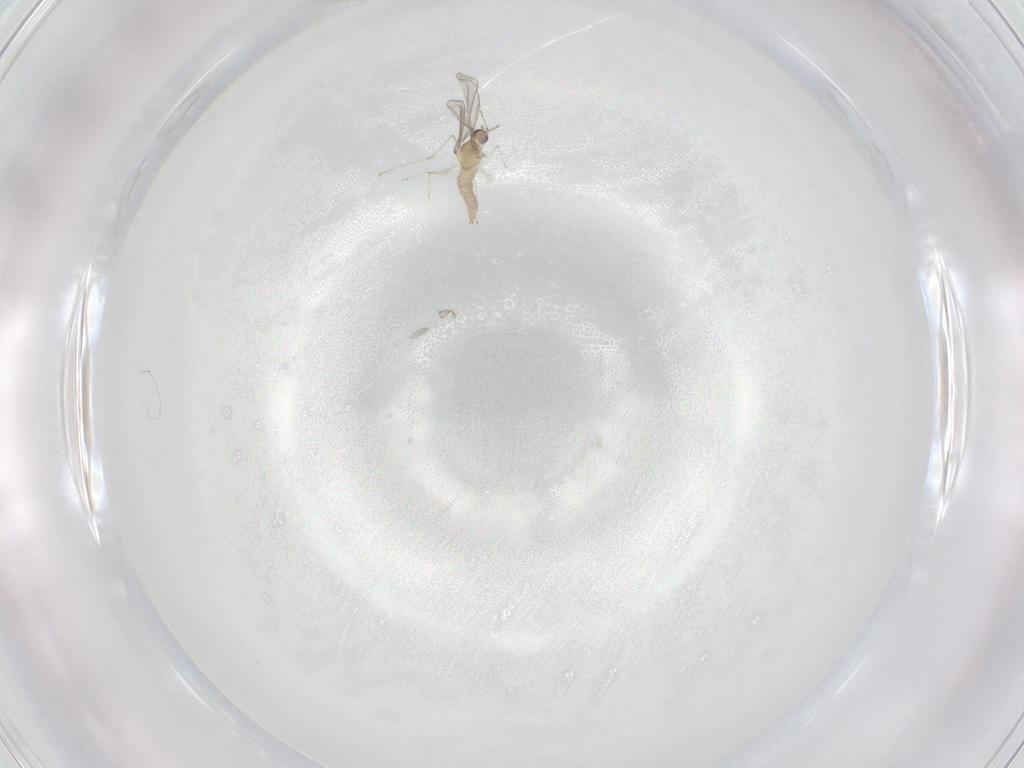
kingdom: Animalia
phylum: Arthropoda
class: Insecta
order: Diptera
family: Cecidomyiidae
